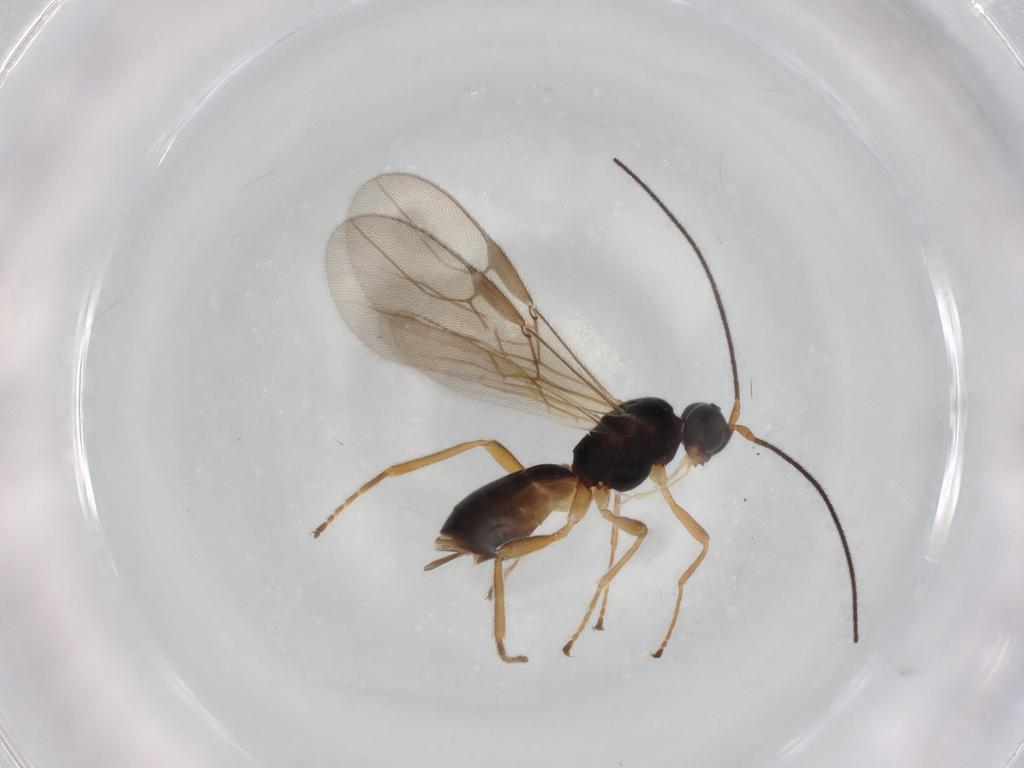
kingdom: Animalia
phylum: Arthropoda
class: Insecta
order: Hymenoptera
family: Braconidae
